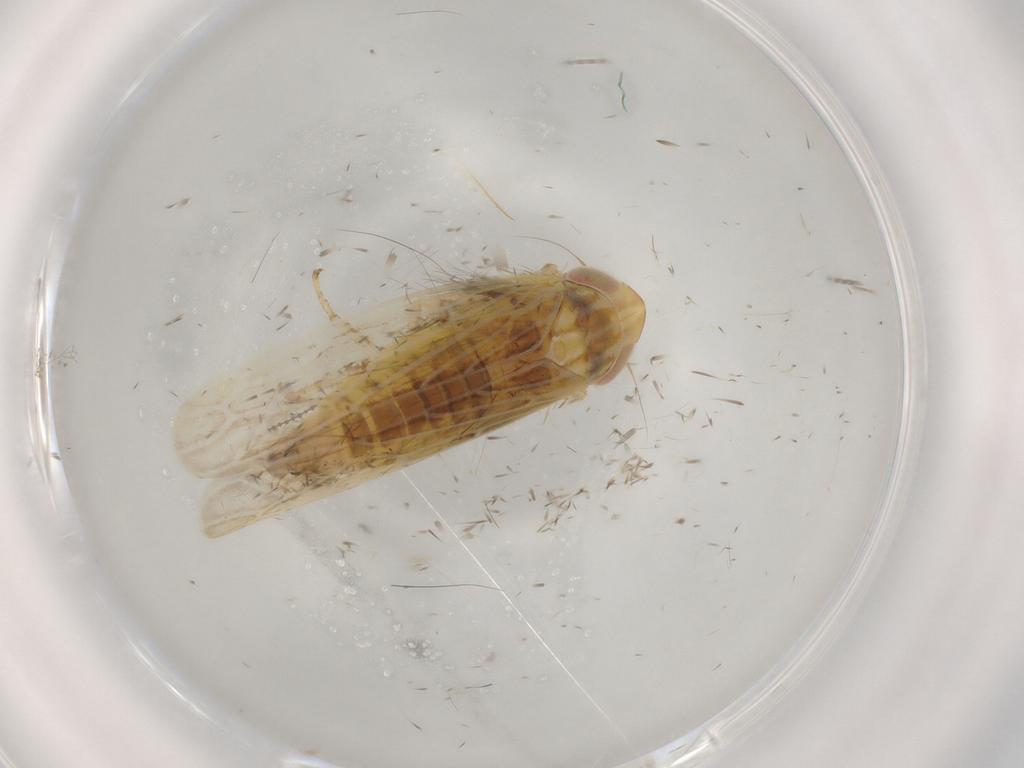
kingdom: Animalia
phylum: Arthropoda
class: Insecta
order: Hemiptera
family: Cicadellidae
